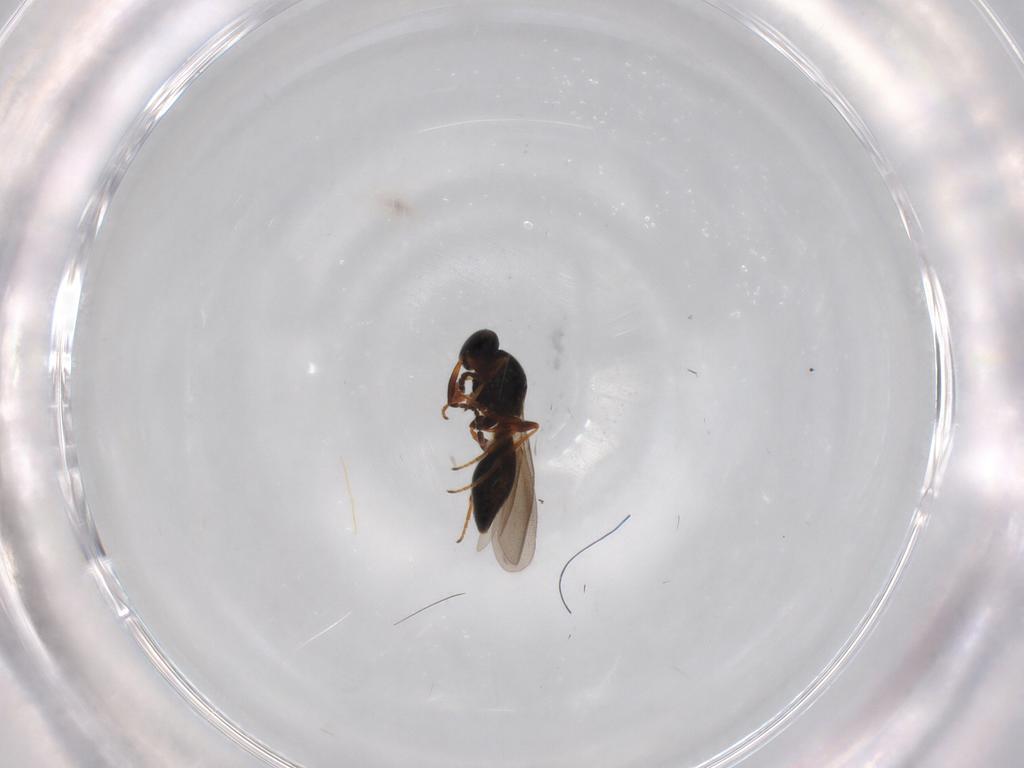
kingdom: Animalia
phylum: Arthropoda
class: Insecta
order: Hymenoptera
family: Platygastridae
